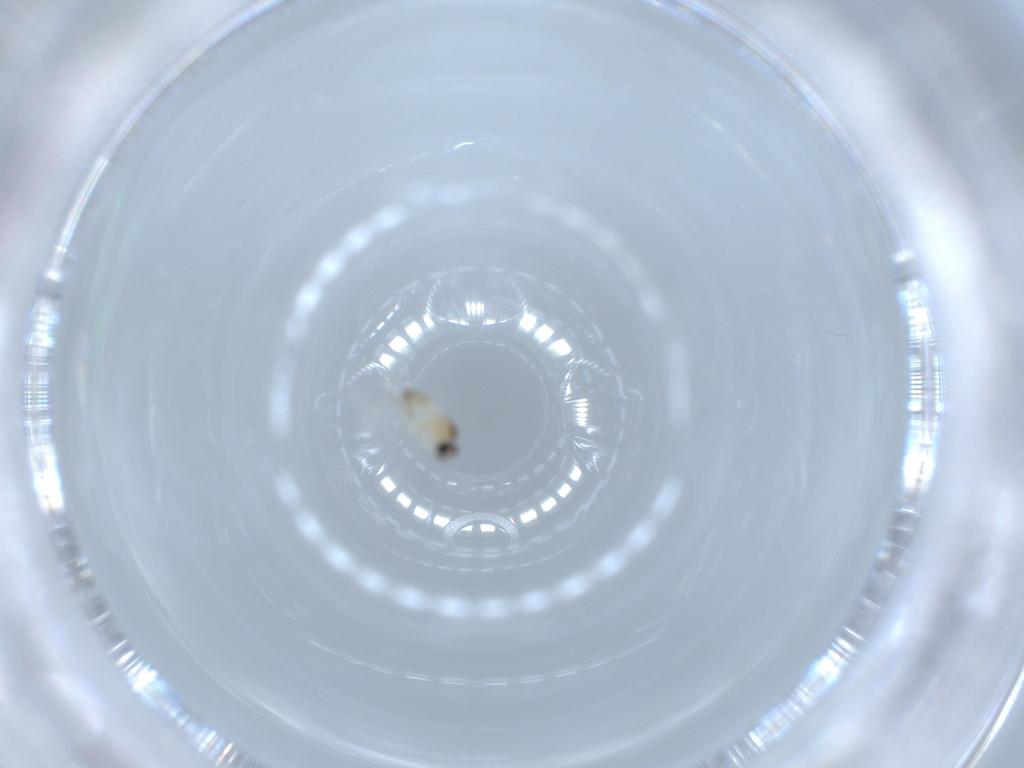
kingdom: Animalia
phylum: Arthropoda
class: Insecta
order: Diptera
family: Cecidomyiidae
